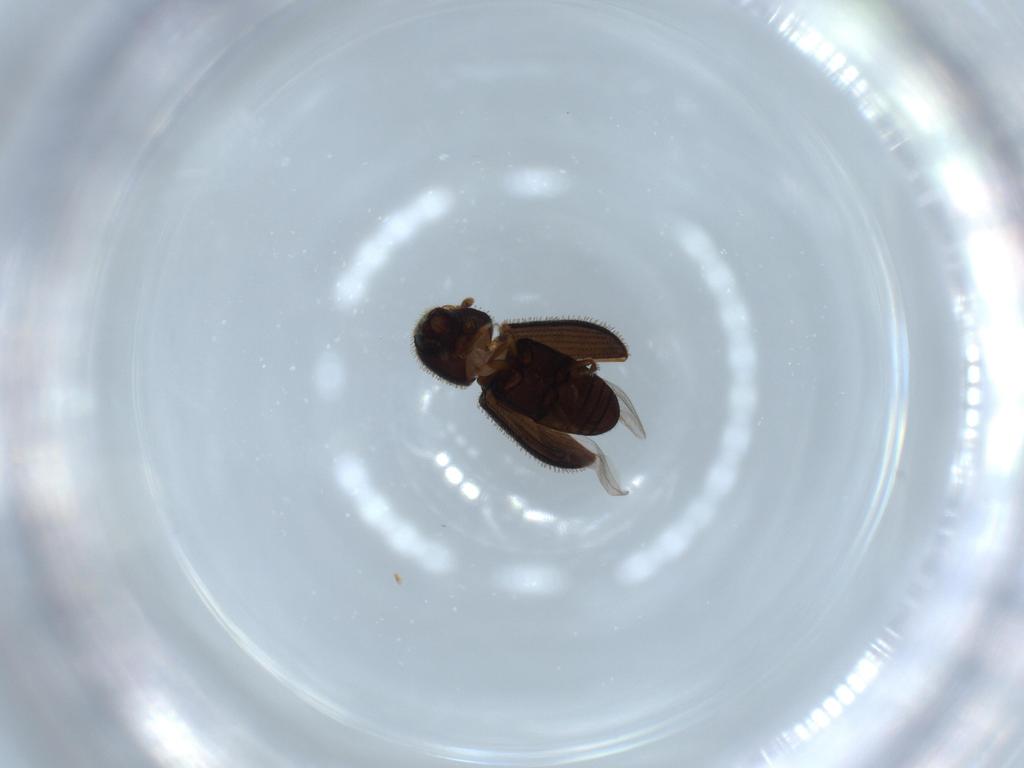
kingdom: Animalia
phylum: Arthropoda
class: Insecta
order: Coleoptera
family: Curculionidae
